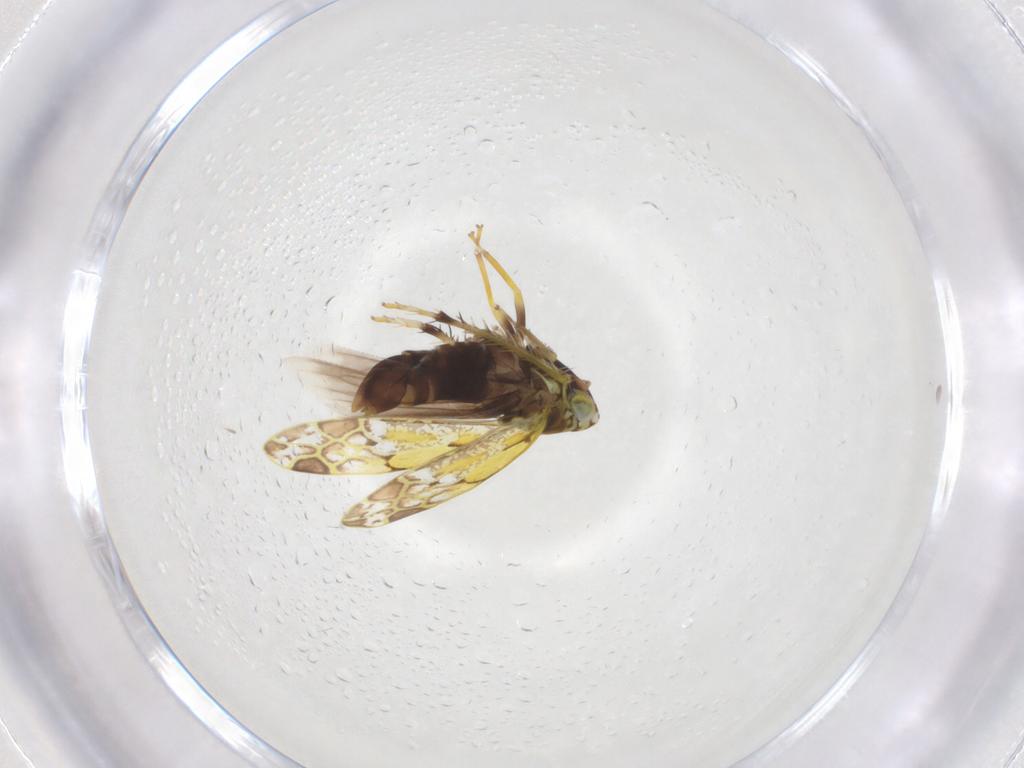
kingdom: Animalia
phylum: Arthropoda
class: Insecta
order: Hemiptera
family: Cicadellidae
